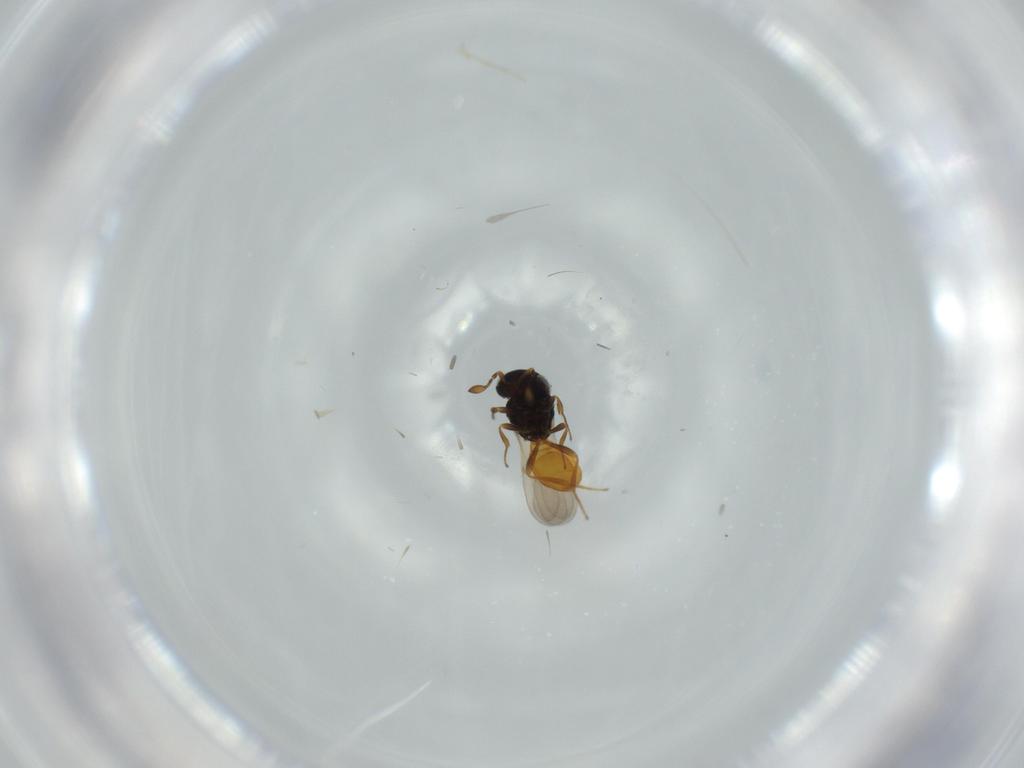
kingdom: Animalia
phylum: Arthropoda
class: Insecta
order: Hymenoptera
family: Scelionidae
